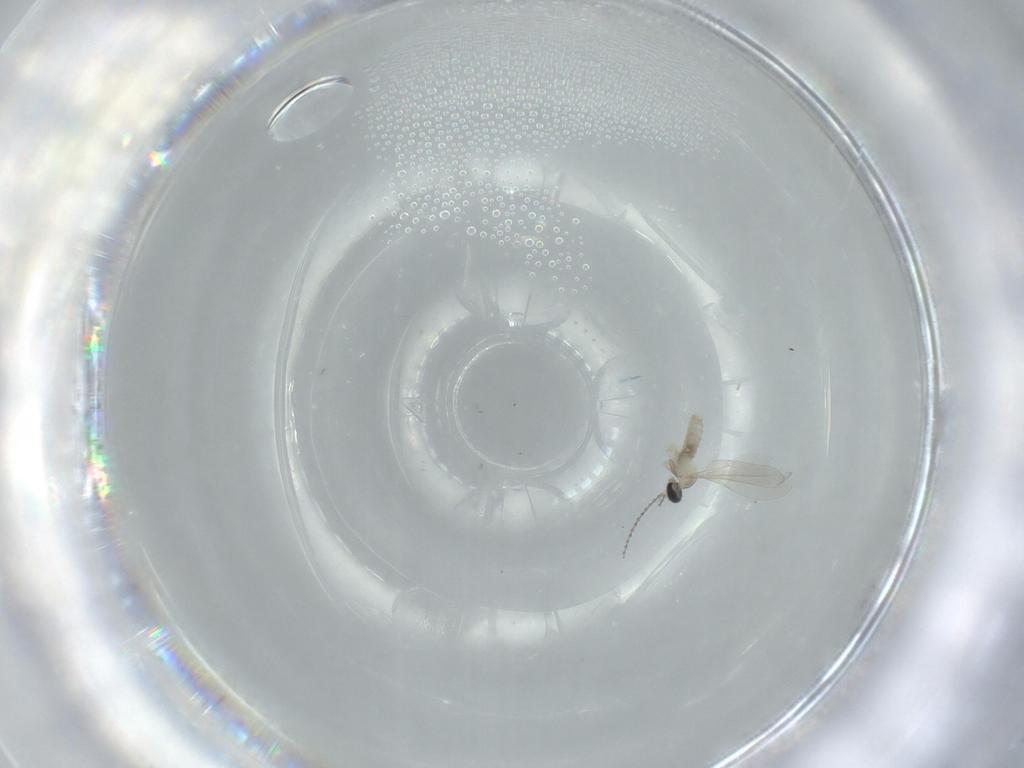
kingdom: Animalia
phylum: Arthropoda
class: Insecta
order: Diptera
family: Cecidomyiidae
